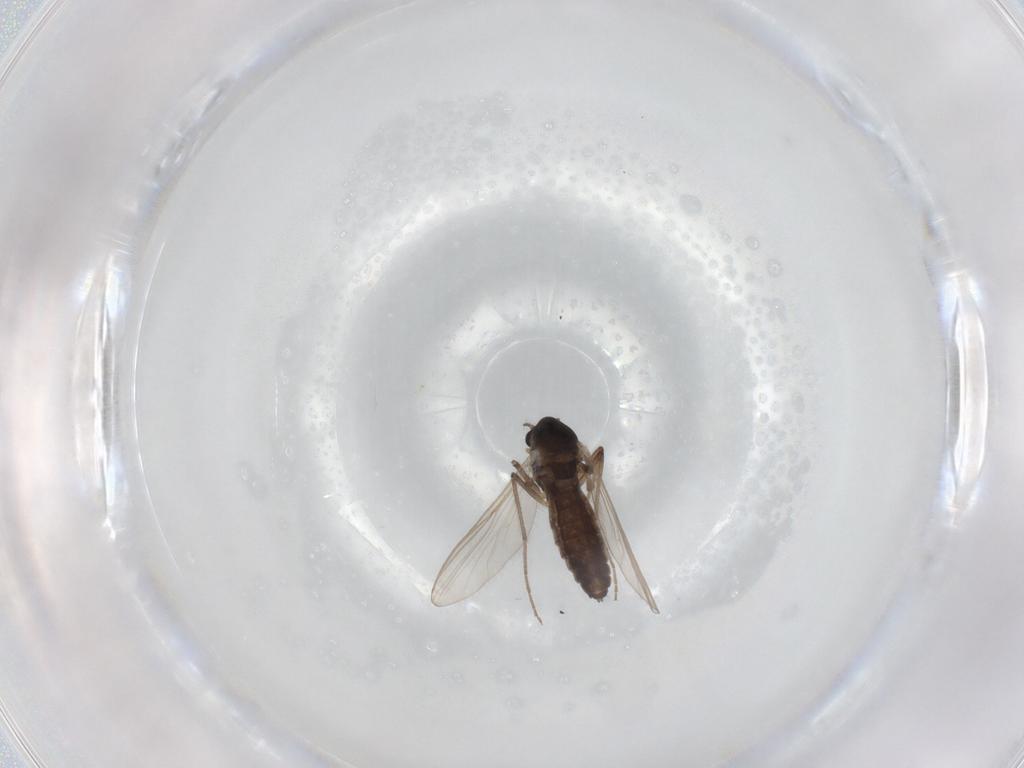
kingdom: Animalia
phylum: Arthropoda
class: Insecta
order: Diptera
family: Chironomidae
